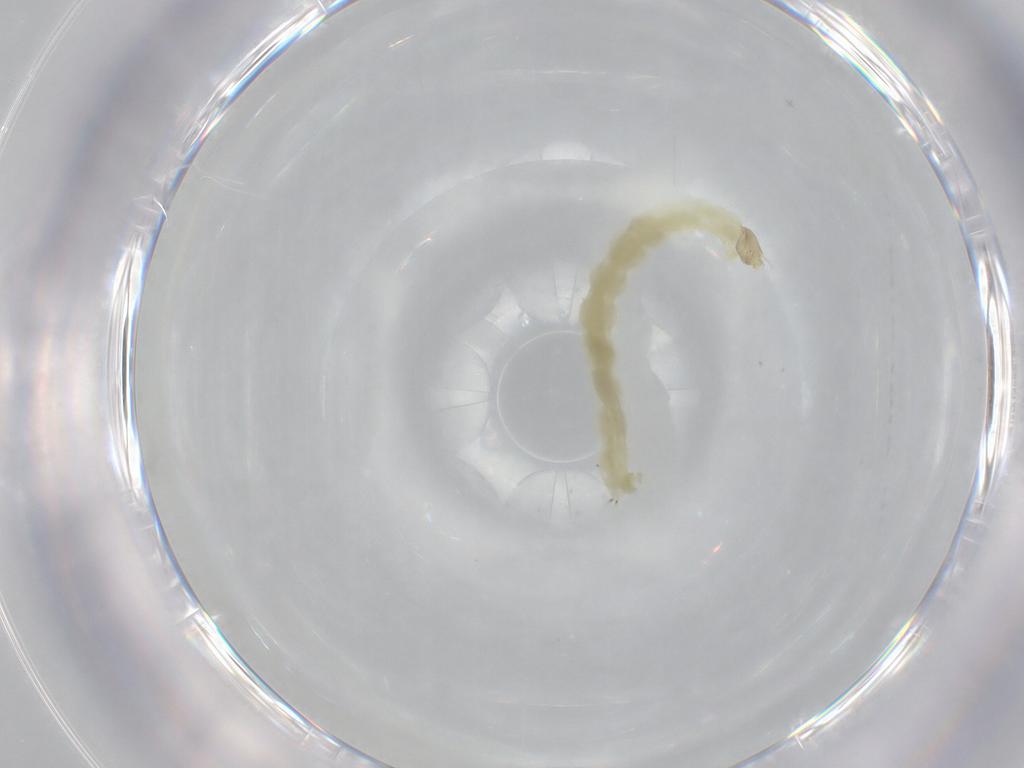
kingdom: Animalia
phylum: Arthropoda
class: Insecta
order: Diptera
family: Chironomidae
